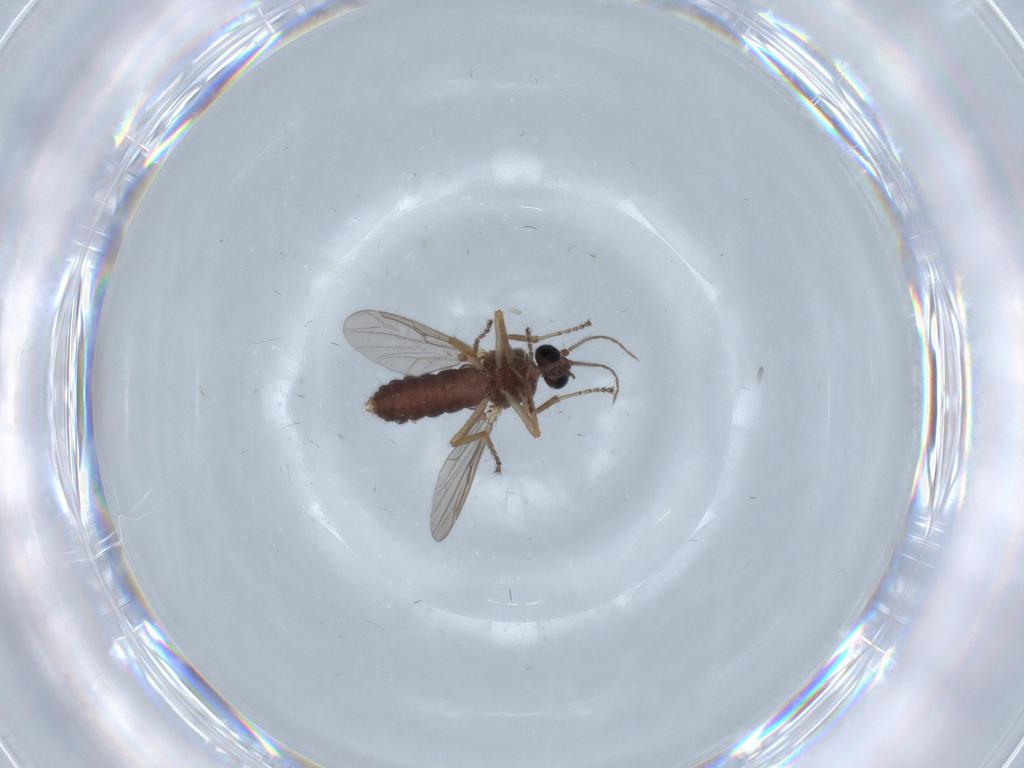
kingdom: Animalia
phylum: Arthropoda
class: Insecta
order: Diptera
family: Ceratopogonidae
